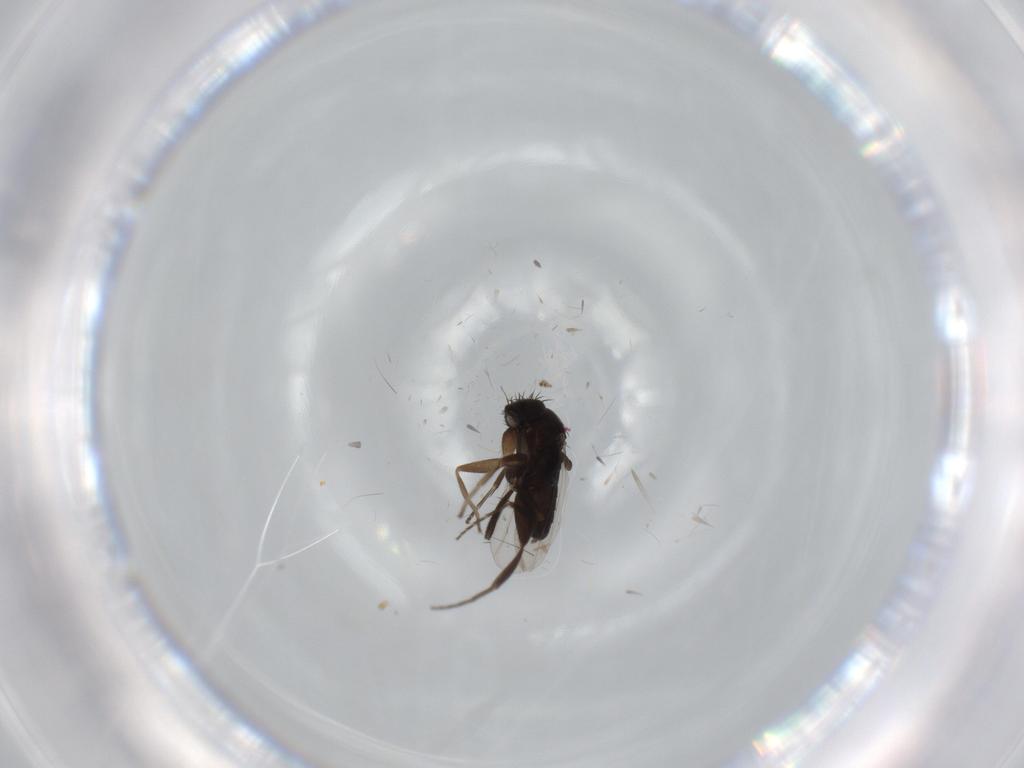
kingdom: Animalia
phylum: Arthropoda
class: Insecta
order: Diptera
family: Phoridae
